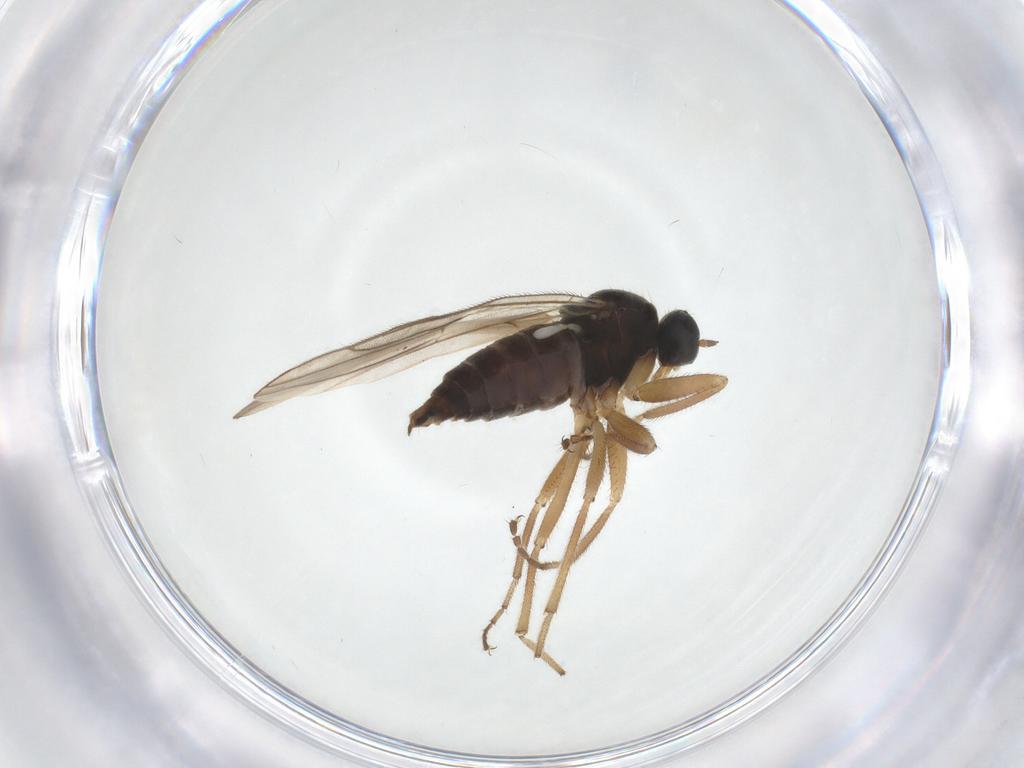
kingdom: Animalia
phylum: Arthropoda
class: Insecta
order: Diptera
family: Hybotidae
